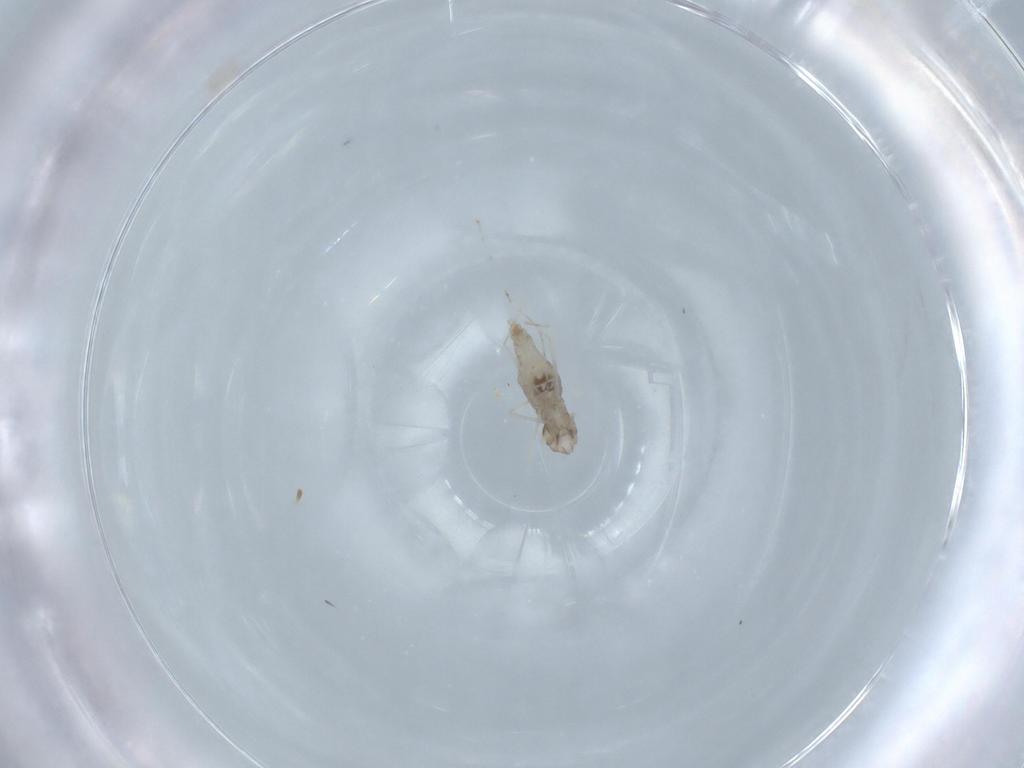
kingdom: Animalia
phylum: Arthropoda
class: Insecta
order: Diptera
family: Cecidomyiidae
